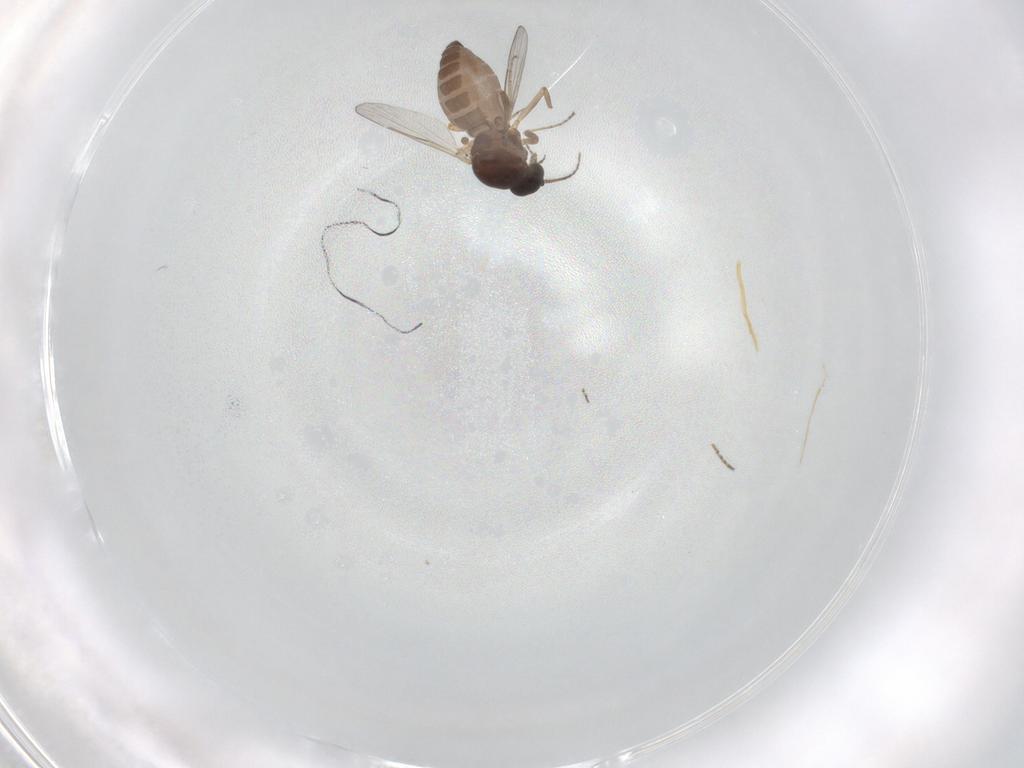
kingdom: Animalia
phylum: Arthropoda
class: Insecta
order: Diptera
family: Ceratopogonidae
